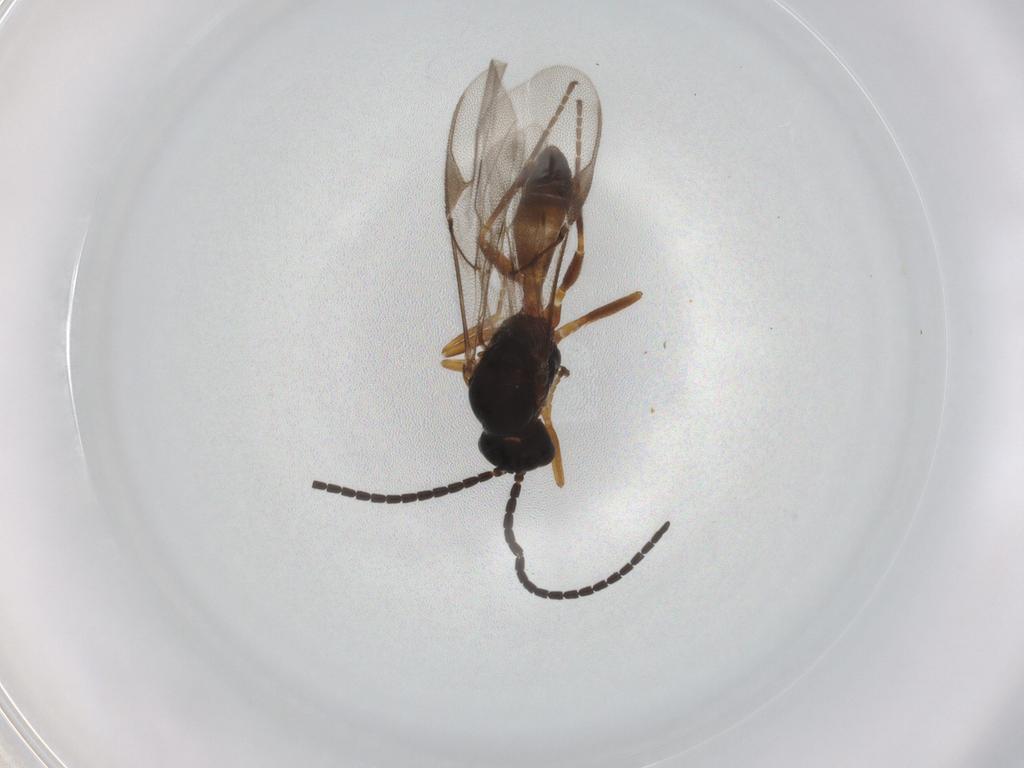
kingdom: Animalia
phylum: Arthropoda
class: Insecta
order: Hymenoptera
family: Braconidae
